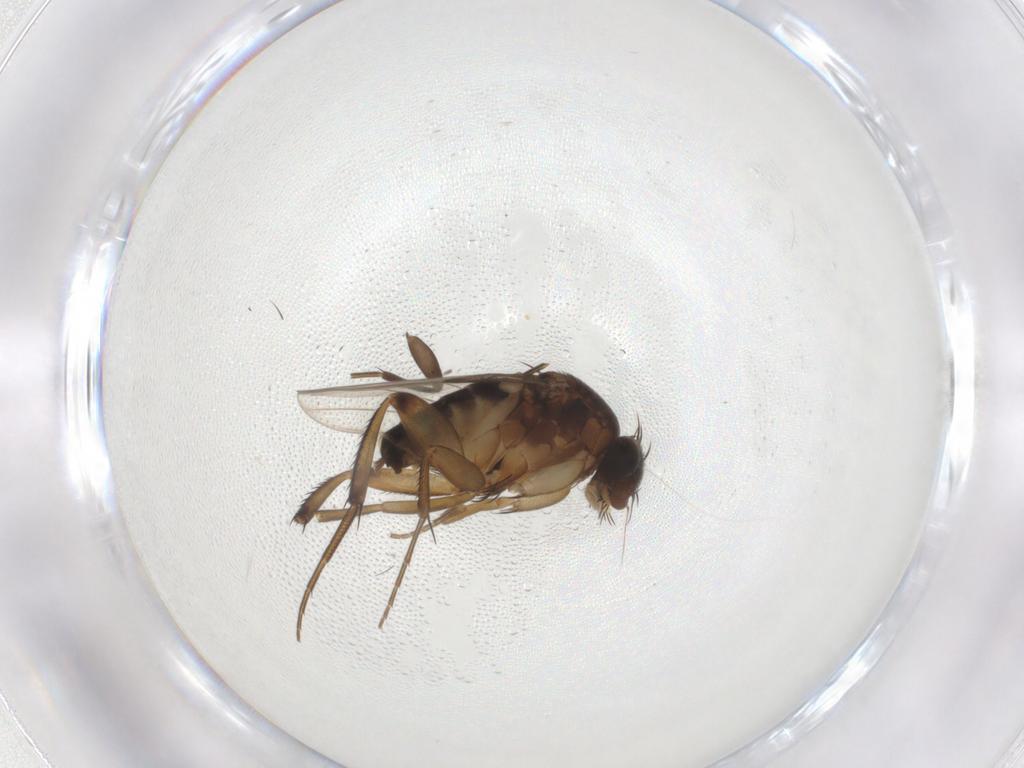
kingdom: Animalia
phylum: Arthropoda
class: Insecta
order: Diptera
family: Phoridae
